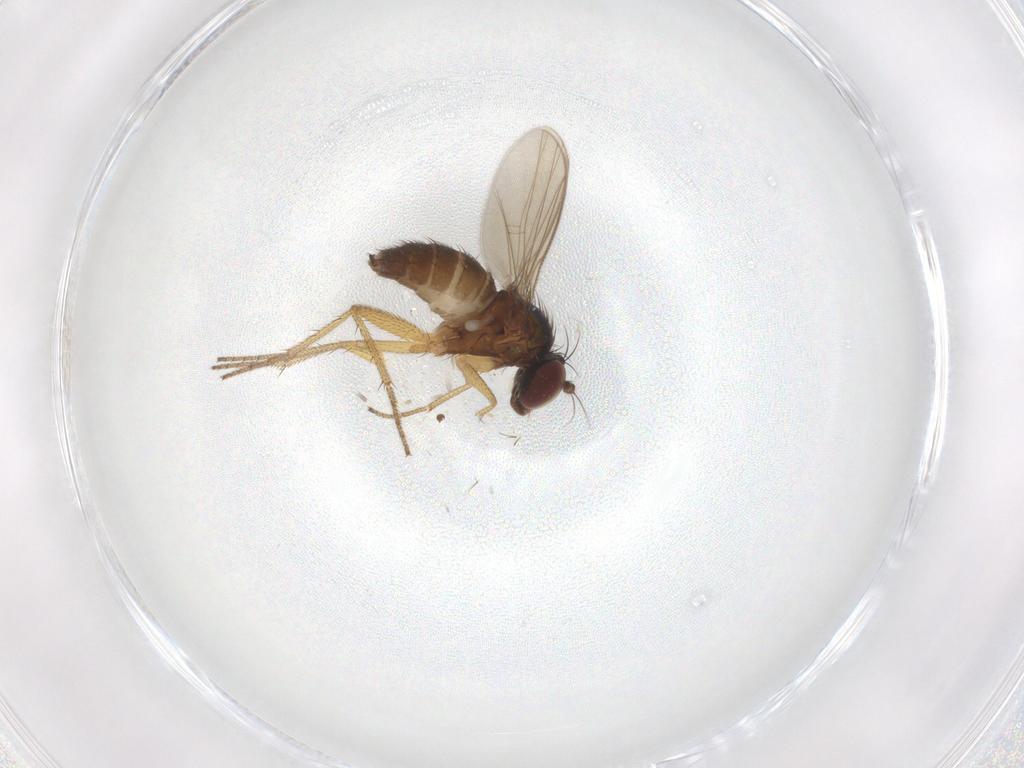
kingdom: Animalia
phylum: Arthropoda
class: Insecta
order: Diptera
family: Dolichopodidae
